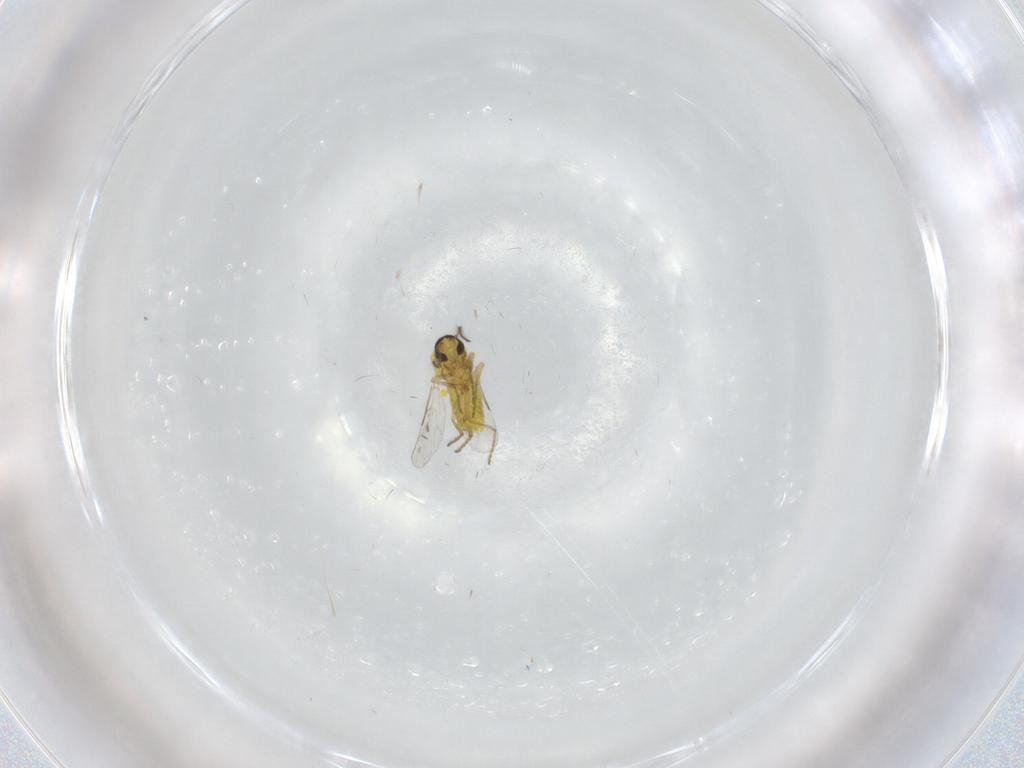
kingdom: Animalia
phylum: Arthropoda
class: Insecta
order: Diptera
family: Ceratopogonidae
